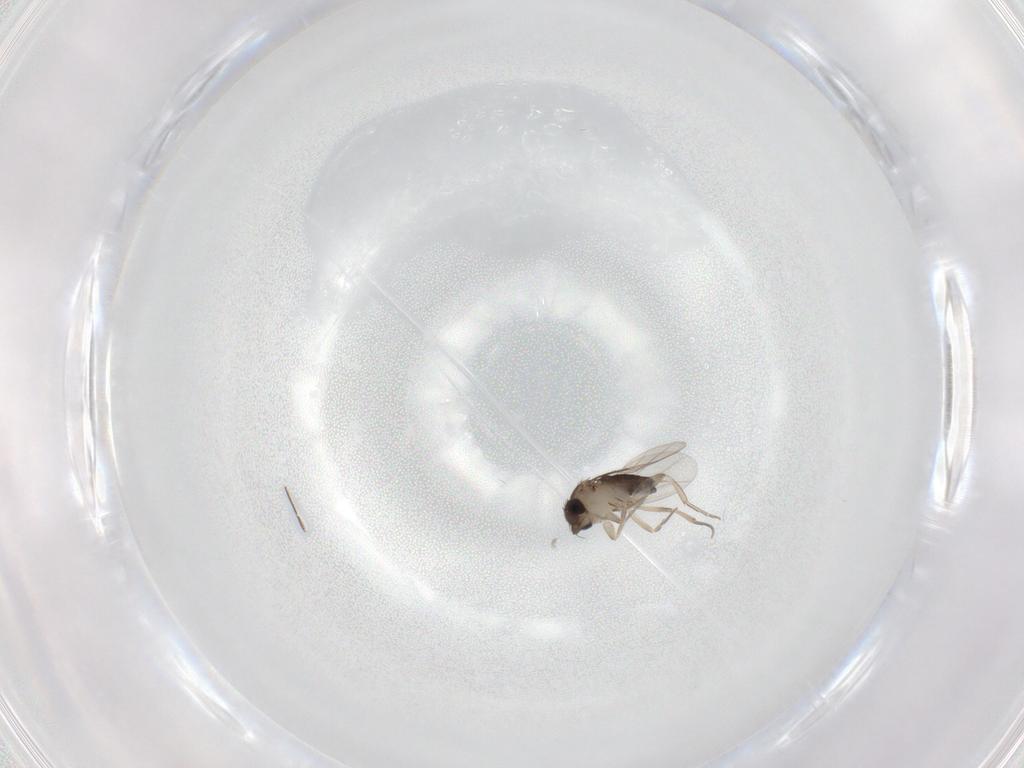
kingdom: Animalia
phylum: Arthropoda
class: Insecta
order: Diptera
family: Phoridae
